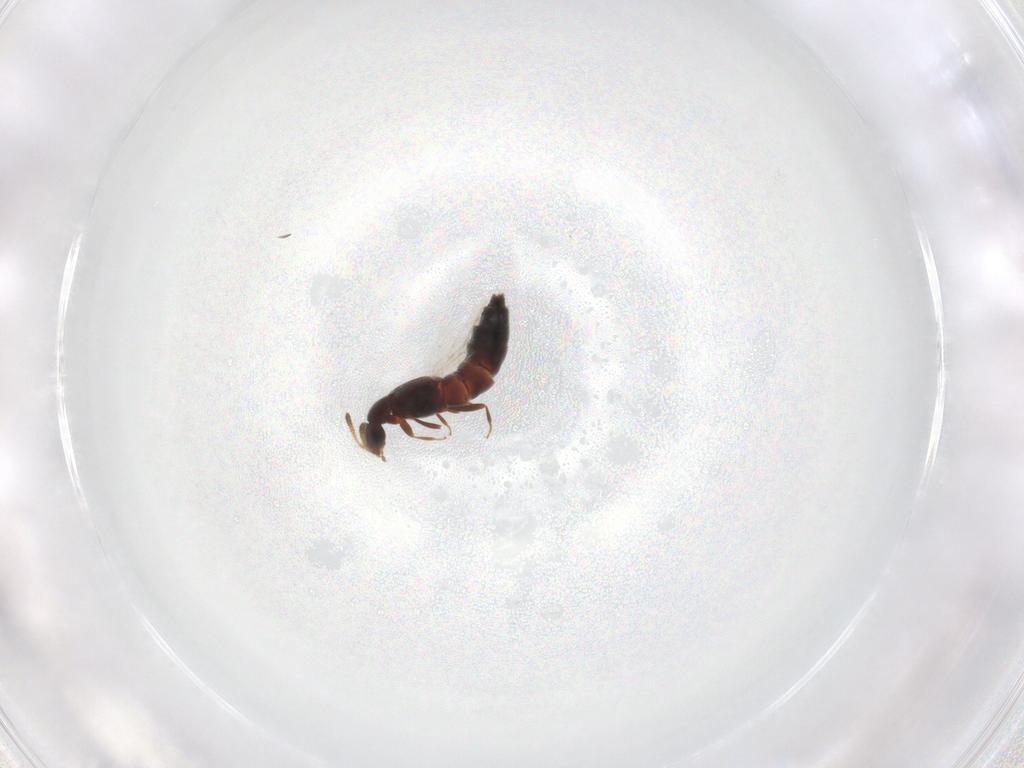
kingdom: Animalia
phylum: Arthropoda
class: Insecta
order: Coleoptera
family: Staphylinidae
